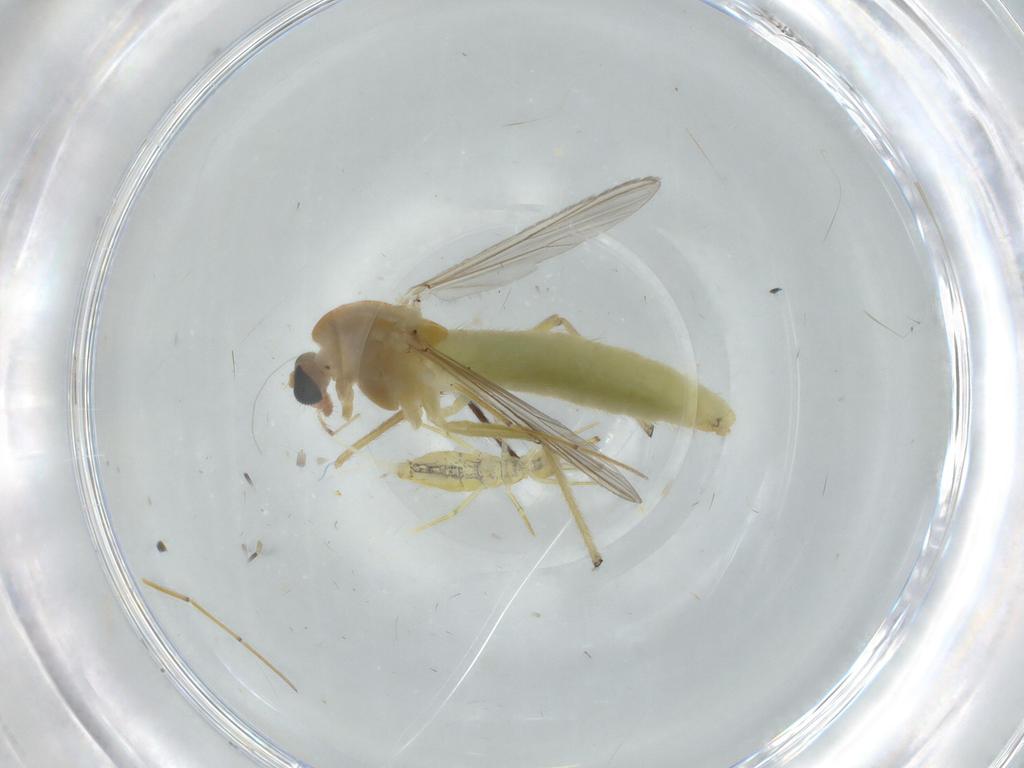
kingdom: Animalia
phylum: Arthropoda
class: Insecta
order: Diptera
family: Chironomidae
